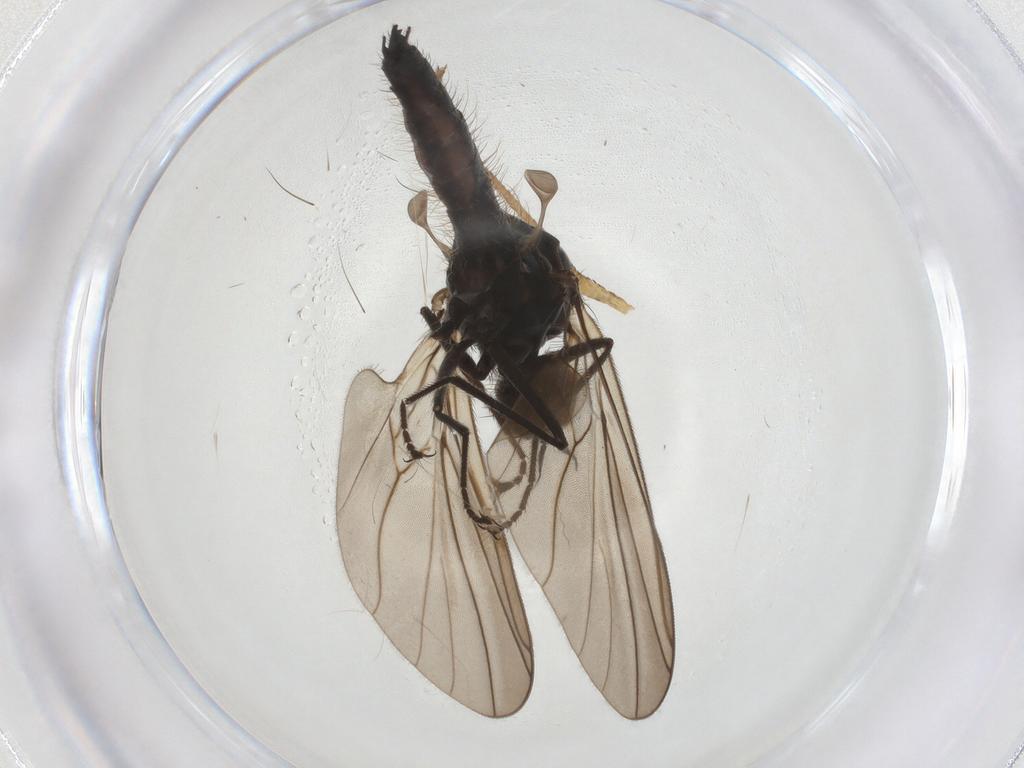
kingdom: Animalia
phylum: Arthropoda
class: Insecta
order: Diptera
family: Hybotidae
